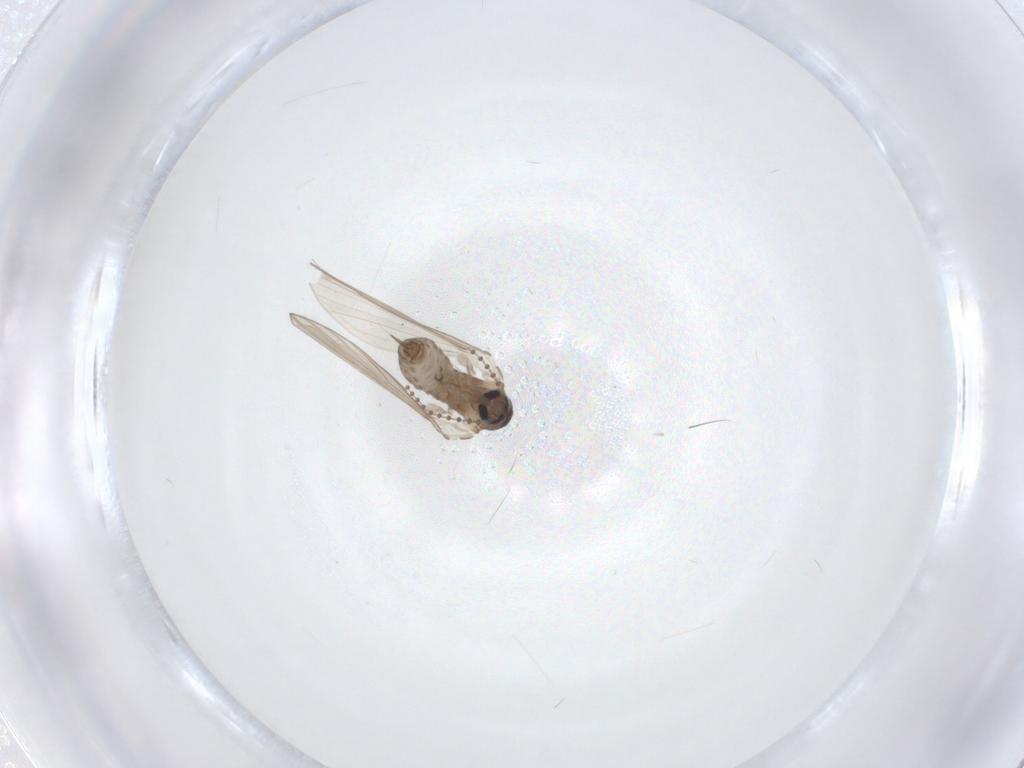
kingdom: Animalia
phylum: Arthropoda
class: Insecta
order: Diptera
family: Psychodidae
